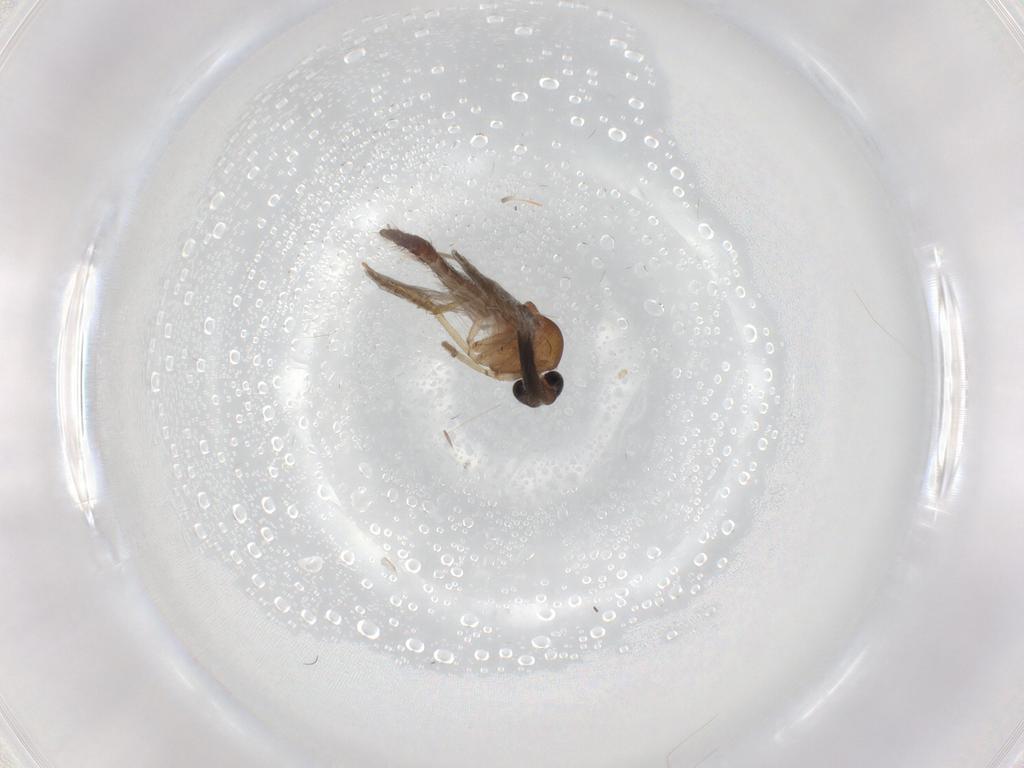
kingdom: Animalia
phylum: Arthropoda
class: Insecta
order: Diptera
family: Ceratopogonidae
